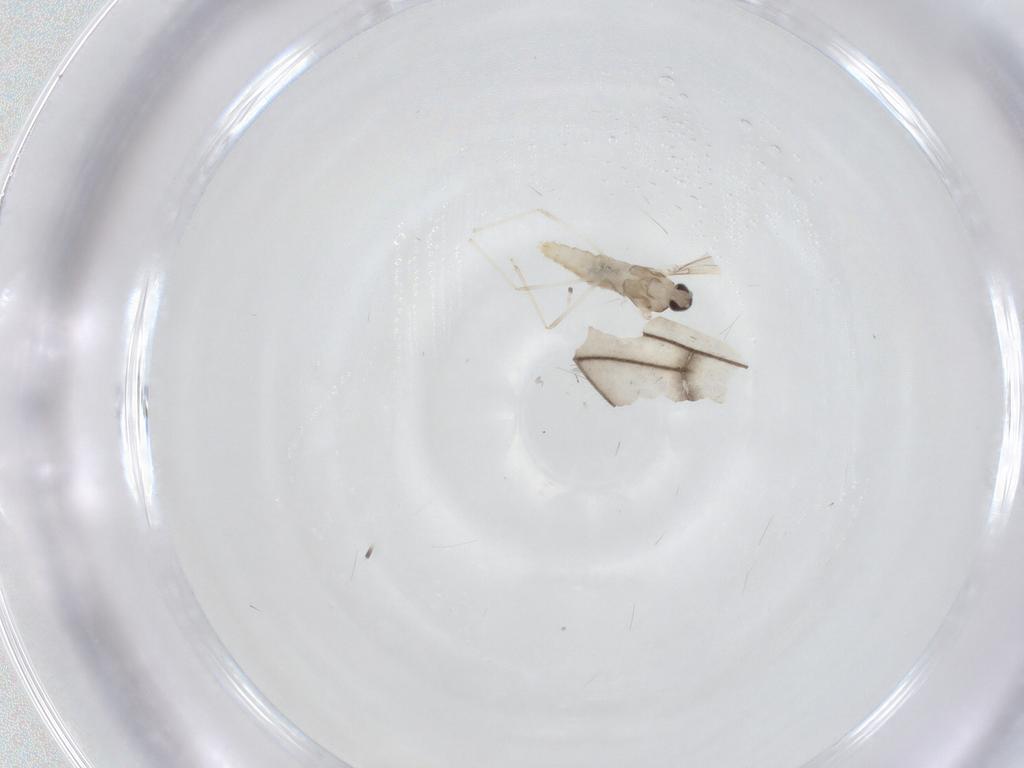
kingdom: Animalia
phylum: Arthropoda
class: Insecta
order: Diptera
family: Cecidomyiidae
